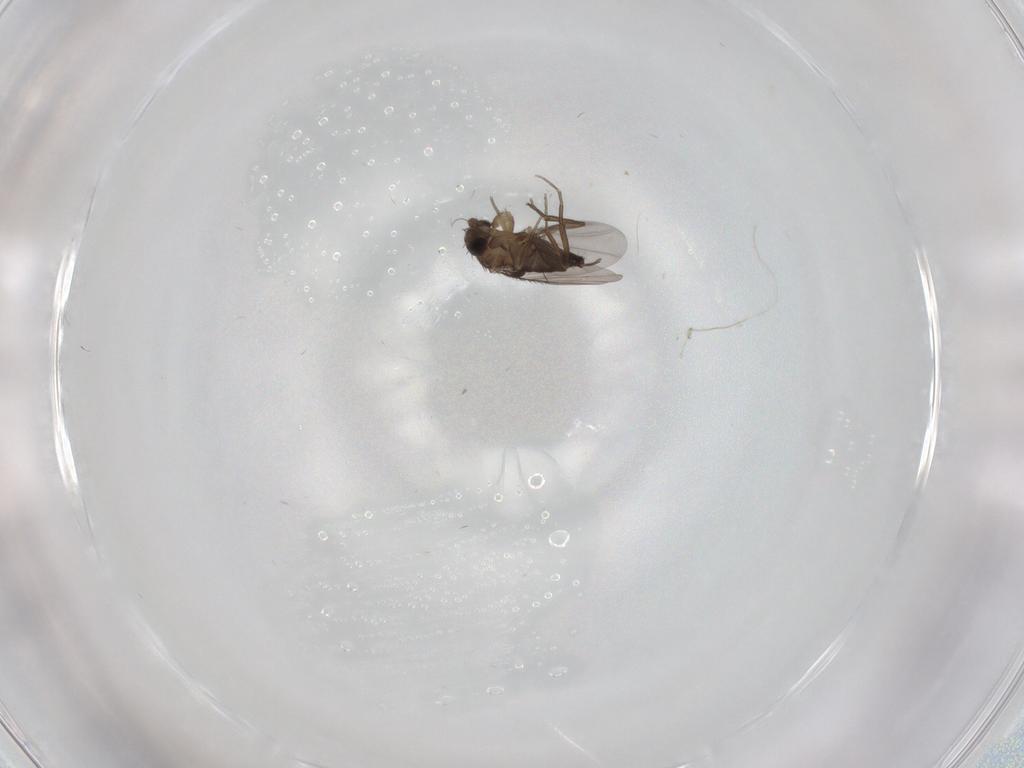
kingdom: Animalia
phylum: Arthropoda
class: Insecta
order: Diptera
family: Phoridae
